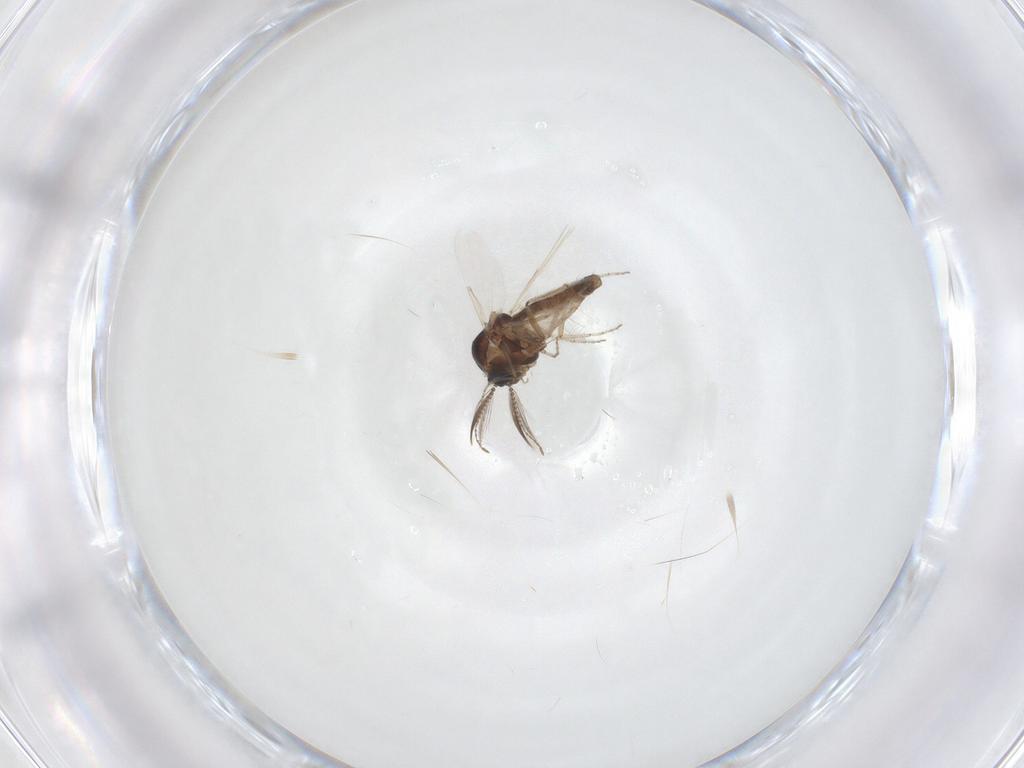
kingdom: Animalia
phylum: Arthropoda
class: Insecta
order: Diptera
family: Ceratopogonidae
